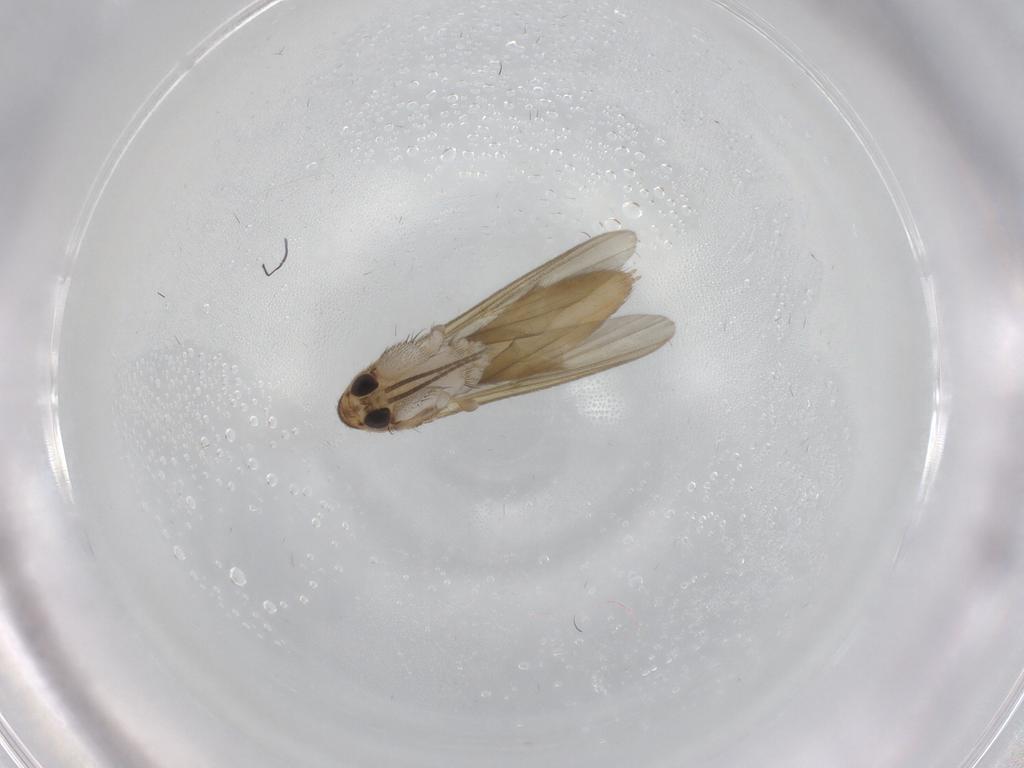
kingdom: Animalia
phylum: Arthropoda
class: Insecta
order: Diptera
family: Mycetophilidae
